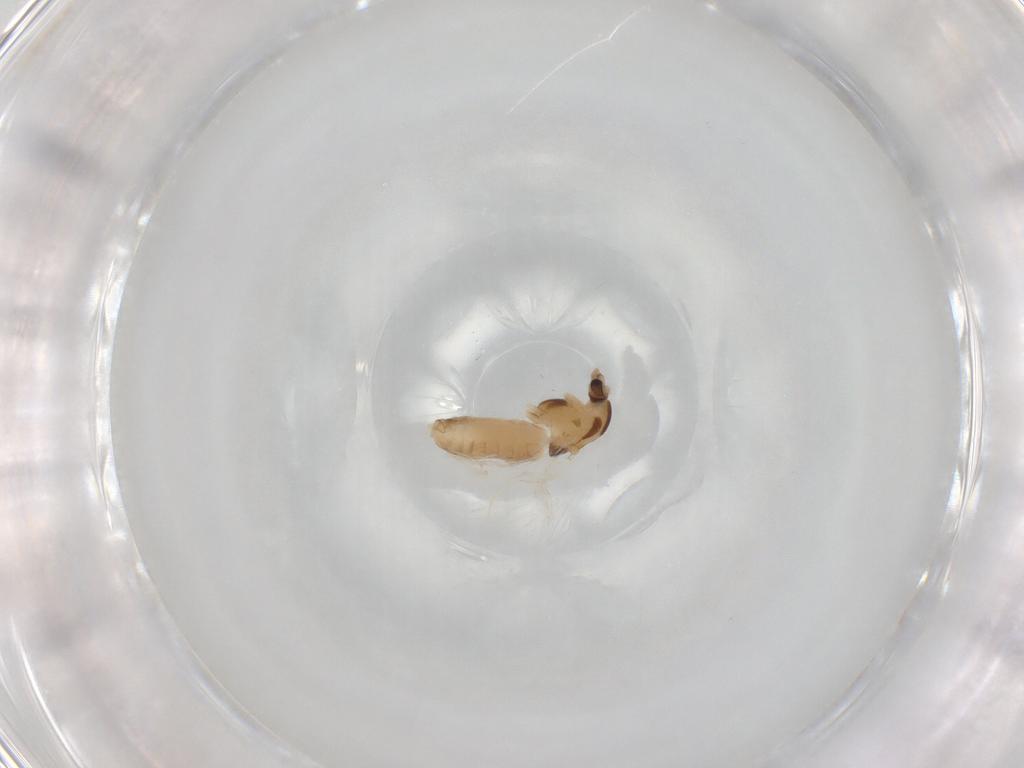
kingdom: Animalia
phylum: Arthropoda
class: Insecta
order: Diptera
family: Chironomidae
